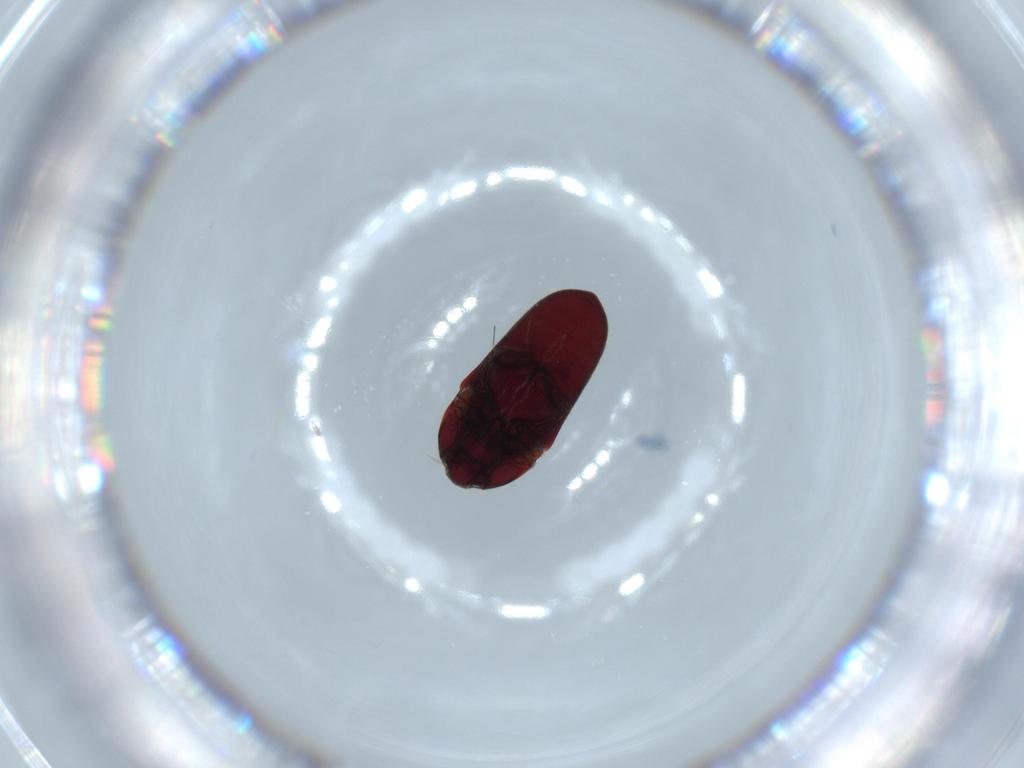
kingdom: Animalia
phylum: Arthropoda
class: Insecta
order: Coleoptera
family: Throscidae
